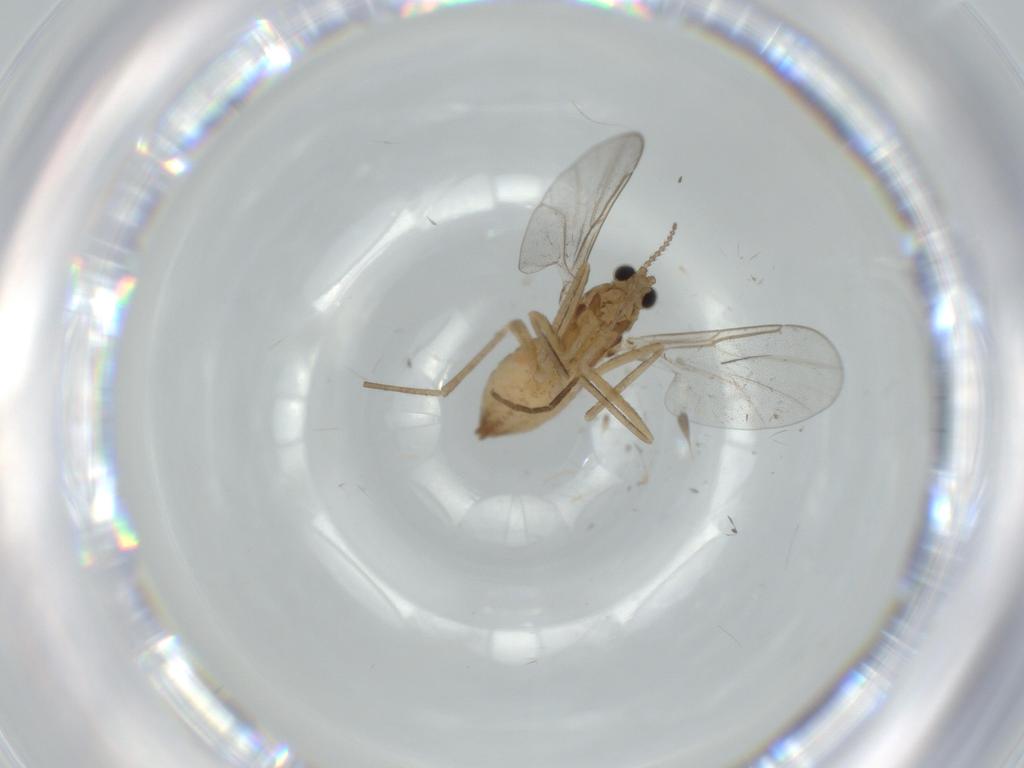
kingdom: Animalia
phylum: Arthropoda
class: Insecta
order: Diptera
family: Cecidomyiidae
